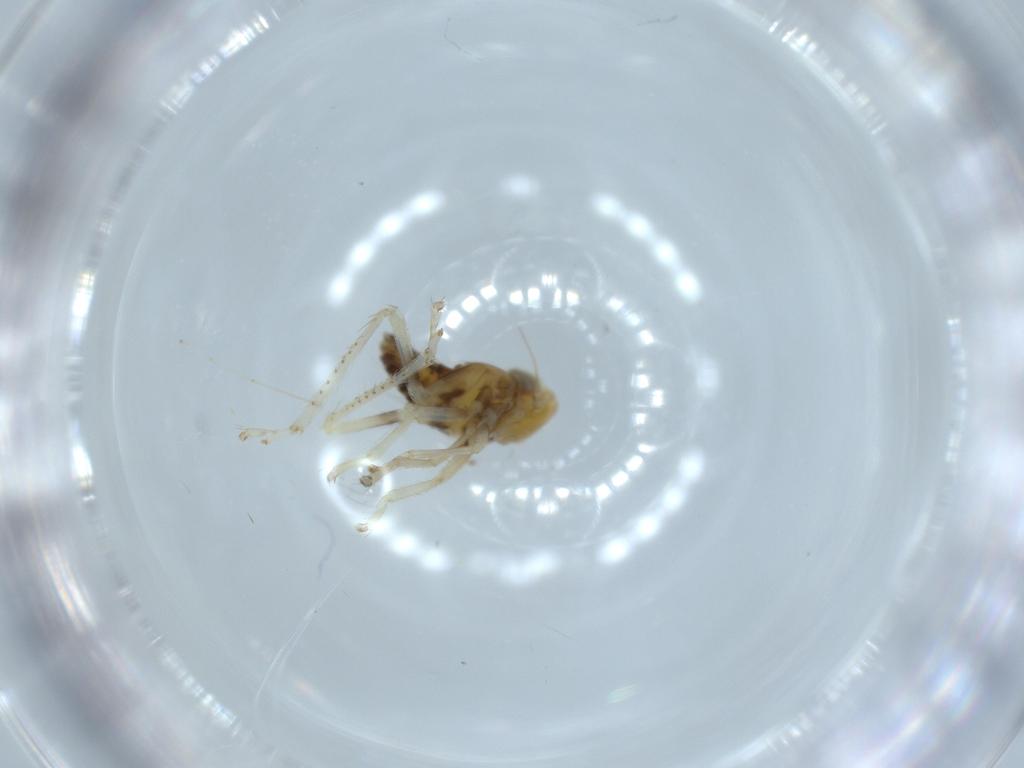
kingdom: Animalia
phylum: Arthropoda
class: Insecta
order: Hemiptera
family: Cicadellidae
